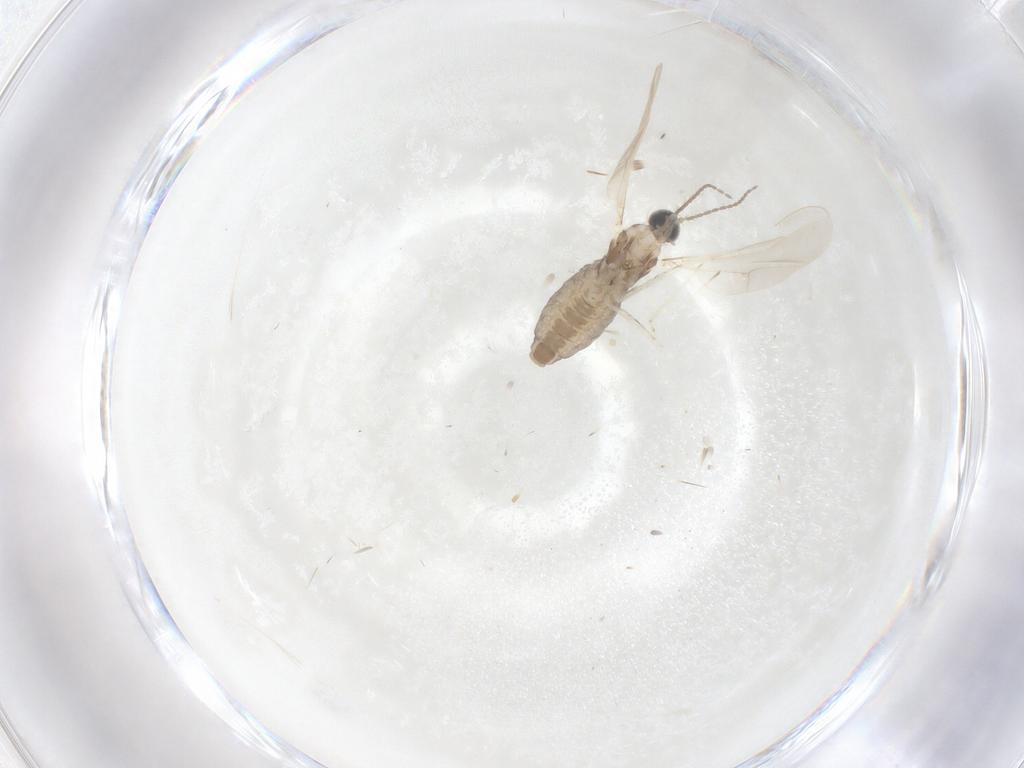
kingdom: Animalia
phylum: Arthropoda
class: Insecta
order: Diptera
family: Cecidomyiidae
